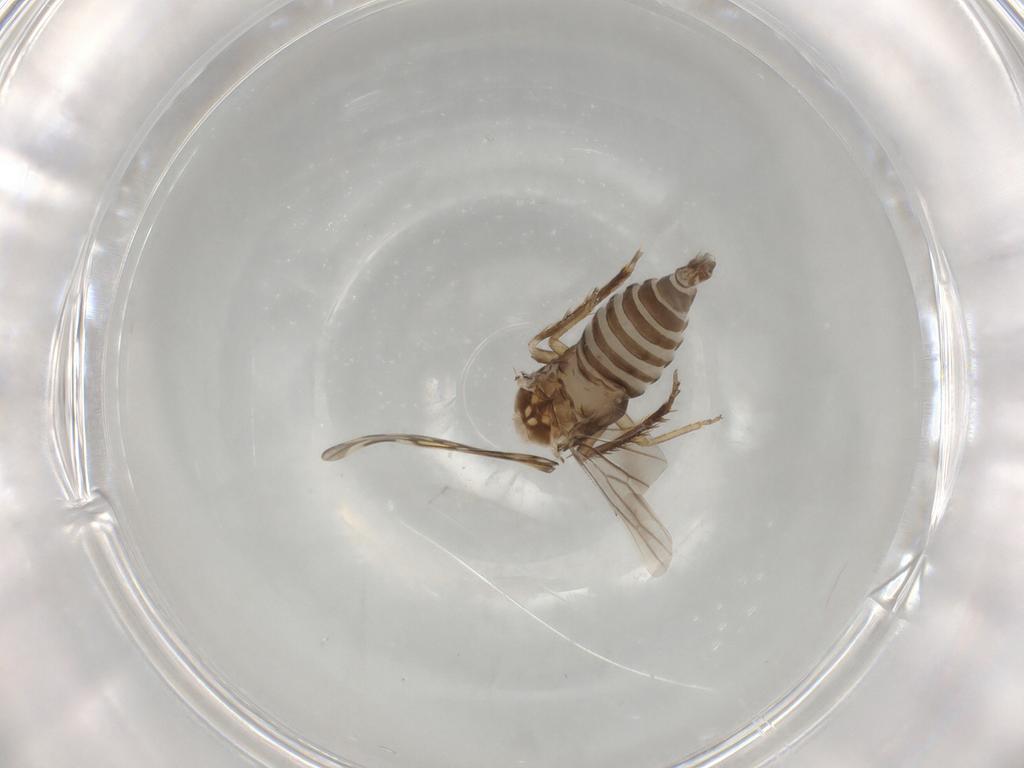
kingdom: Animalia
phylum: Arthropoda
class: Insecta
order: Hemiptera
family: Cicadellidae
